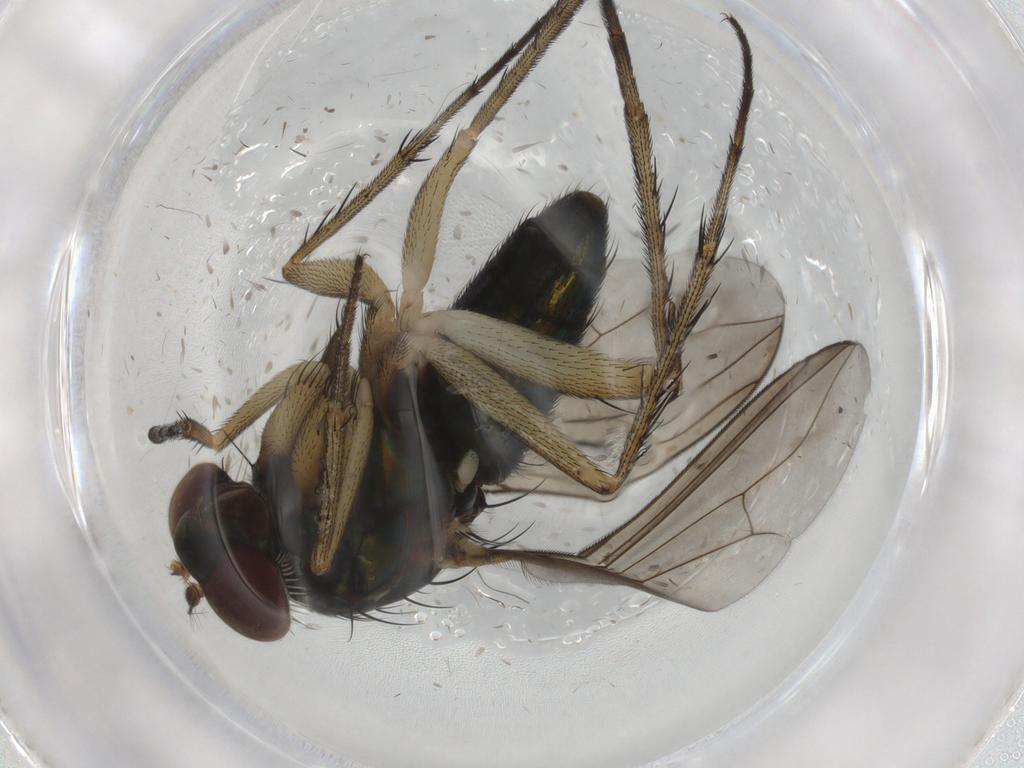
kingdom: Animalia
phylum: Arthropoda
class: Insecta
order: Diptera
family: Dolichopodidae
